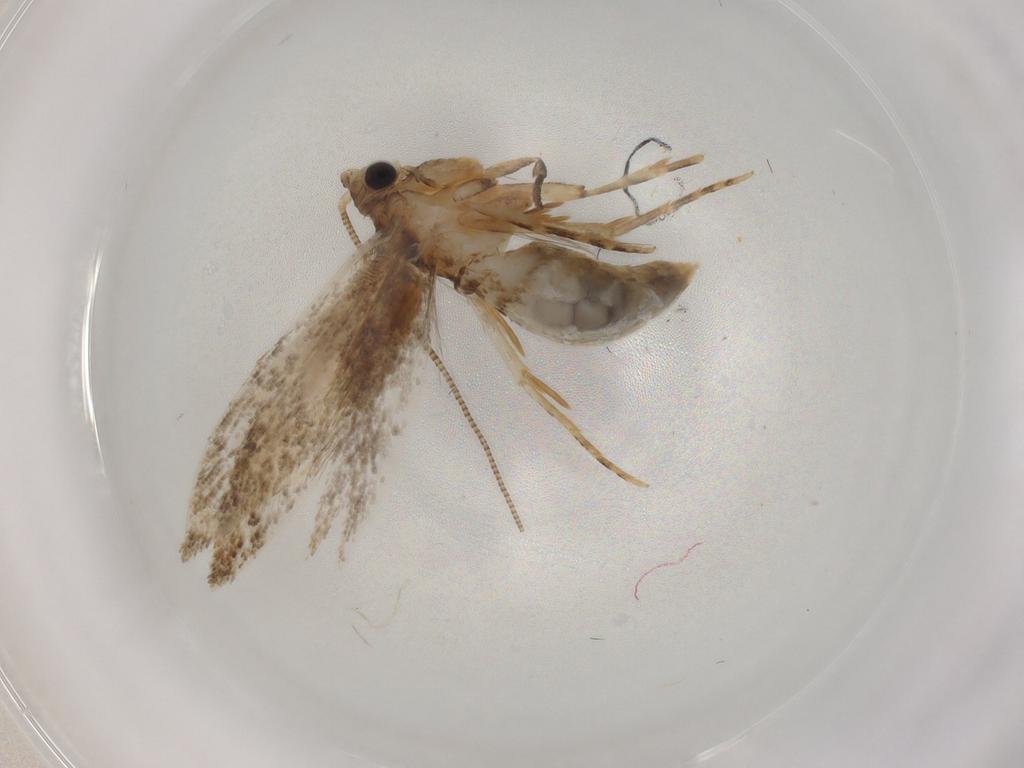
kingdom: Animalia
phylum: Arthropoda
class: Insecta
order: Lepidoptera
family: Tineidae
